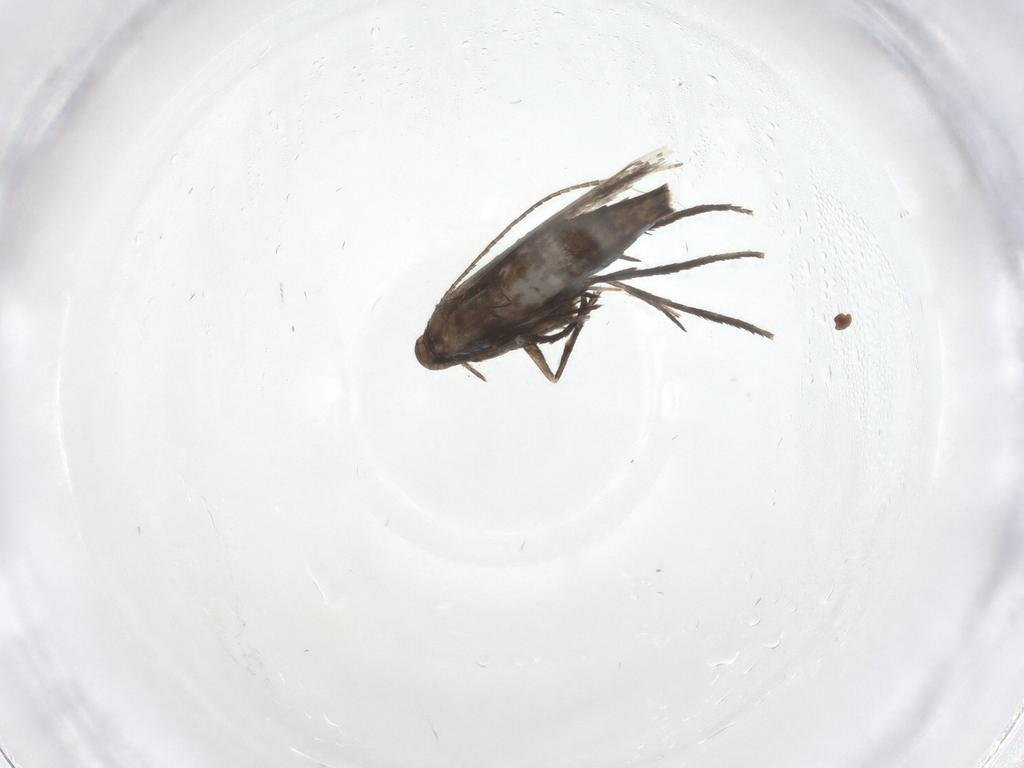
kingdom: Animalia
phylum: Arthropoda
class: Insecta
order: Lepidoptera
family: Gracillariidae
